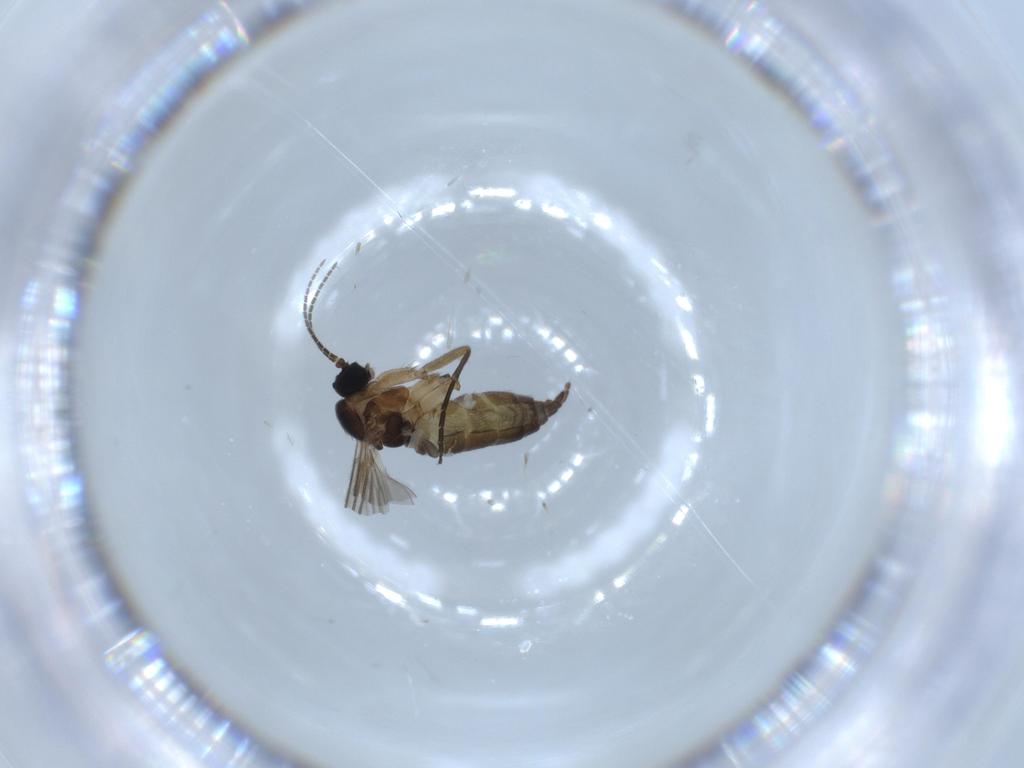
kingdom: Animalia
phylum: Arthropoda
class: Insecta
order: Diptera
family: Sciaridae
